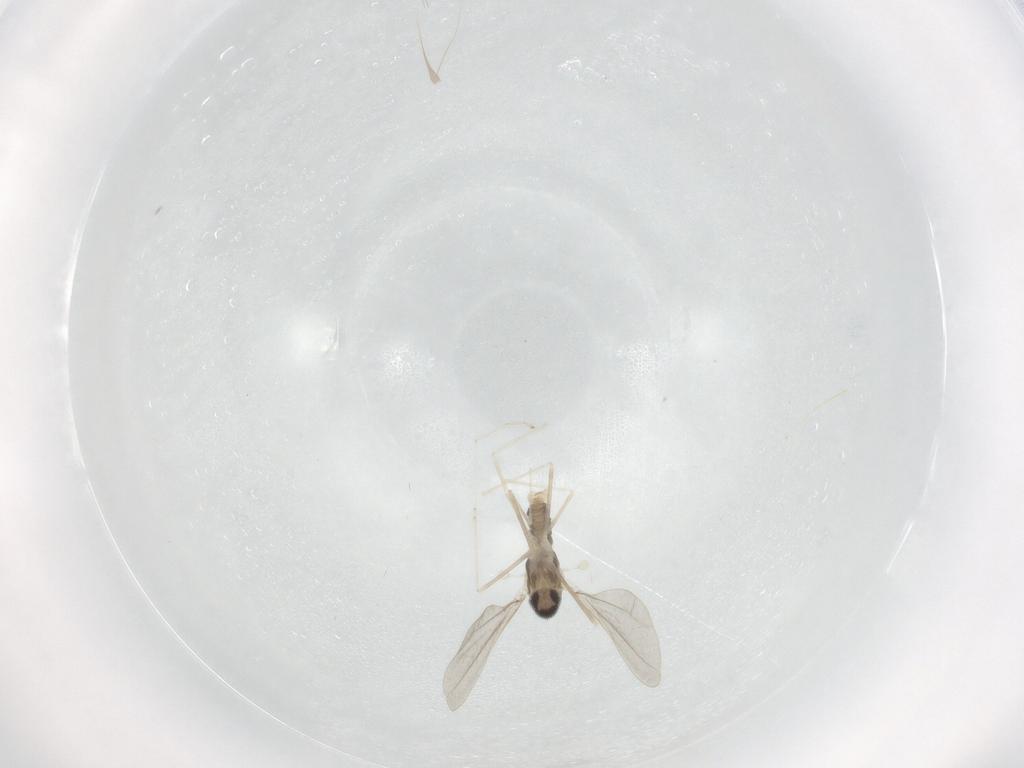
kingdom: Animalia
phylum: Arthropoda
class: Insecta
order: Diptera
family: Cecidomyiidae
